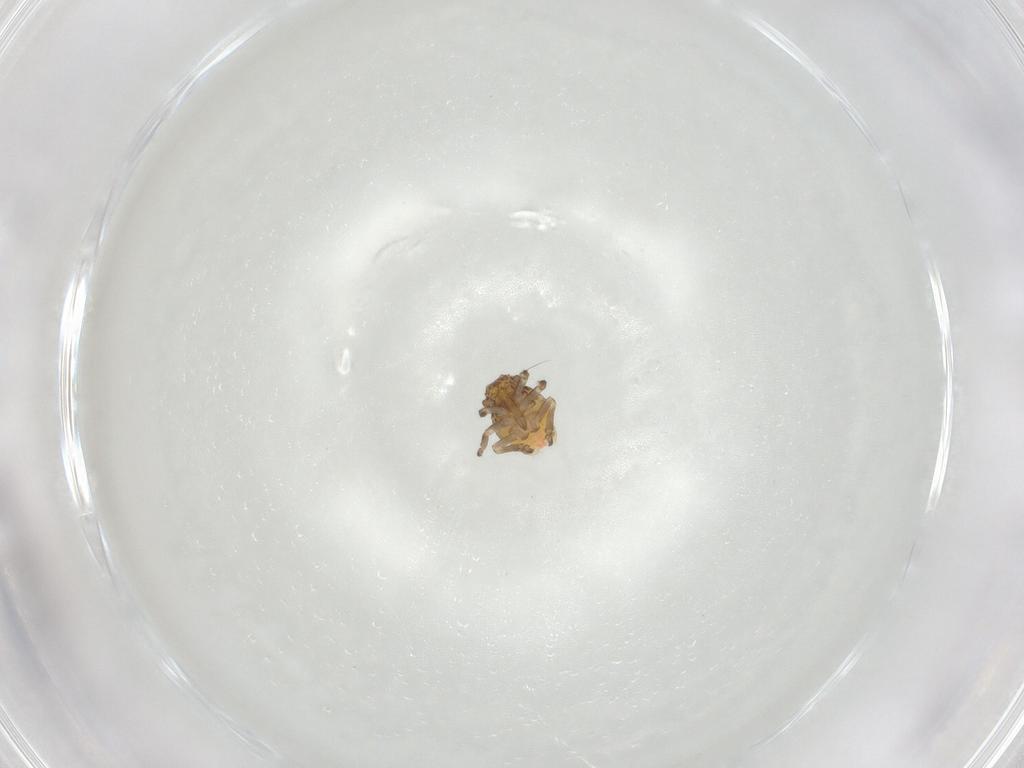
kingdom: Animalia
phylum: Arthropoda
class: Insecta
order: Hemiptera
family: Ricaniidae
